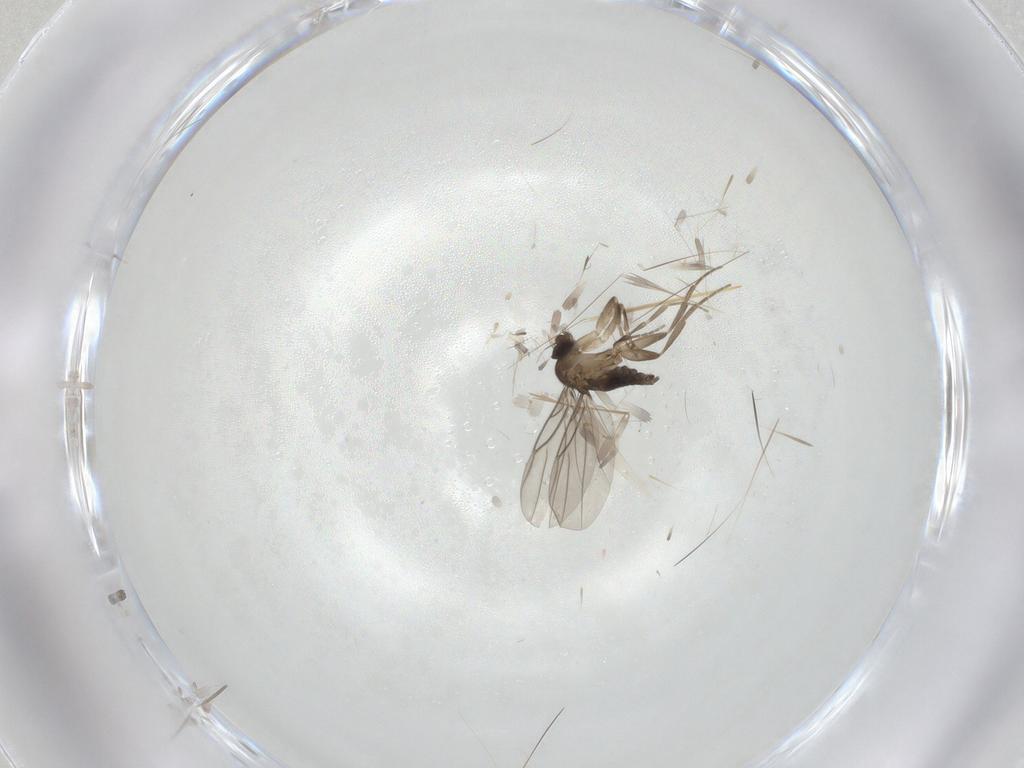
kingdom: Animalia
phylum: Arthropoda
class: Insecta
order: Diptera
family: Phoridae
